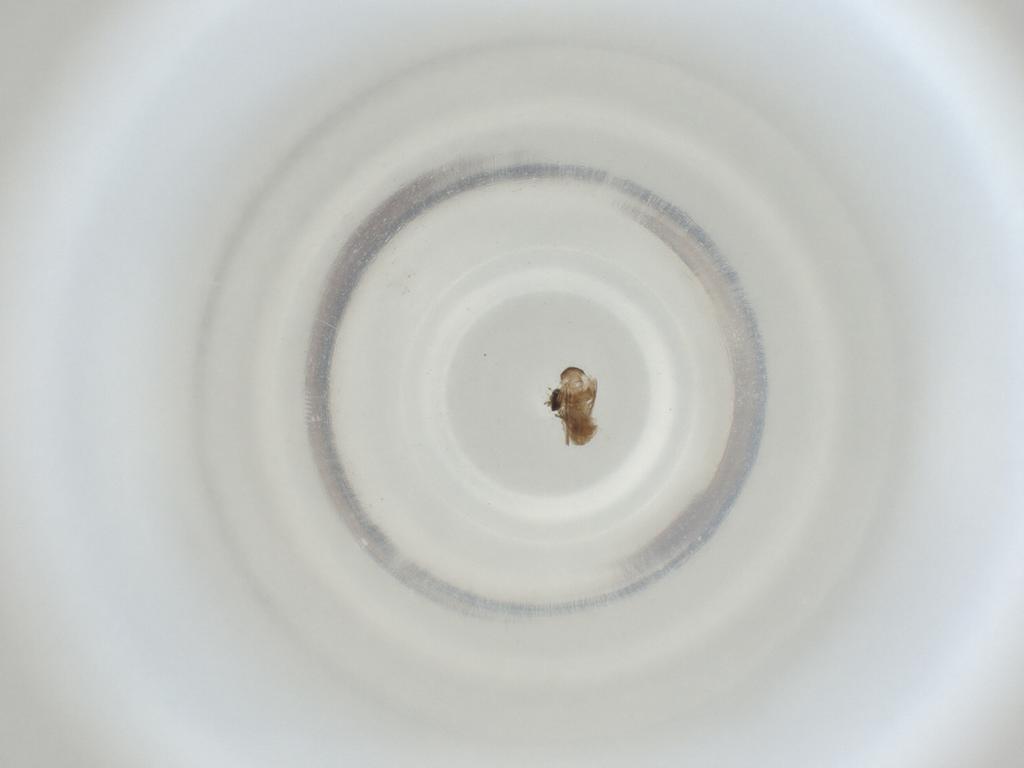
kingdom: Animalia
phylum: Arthropoda
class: Insecta
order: Diptera
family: Cecidomyiidae
